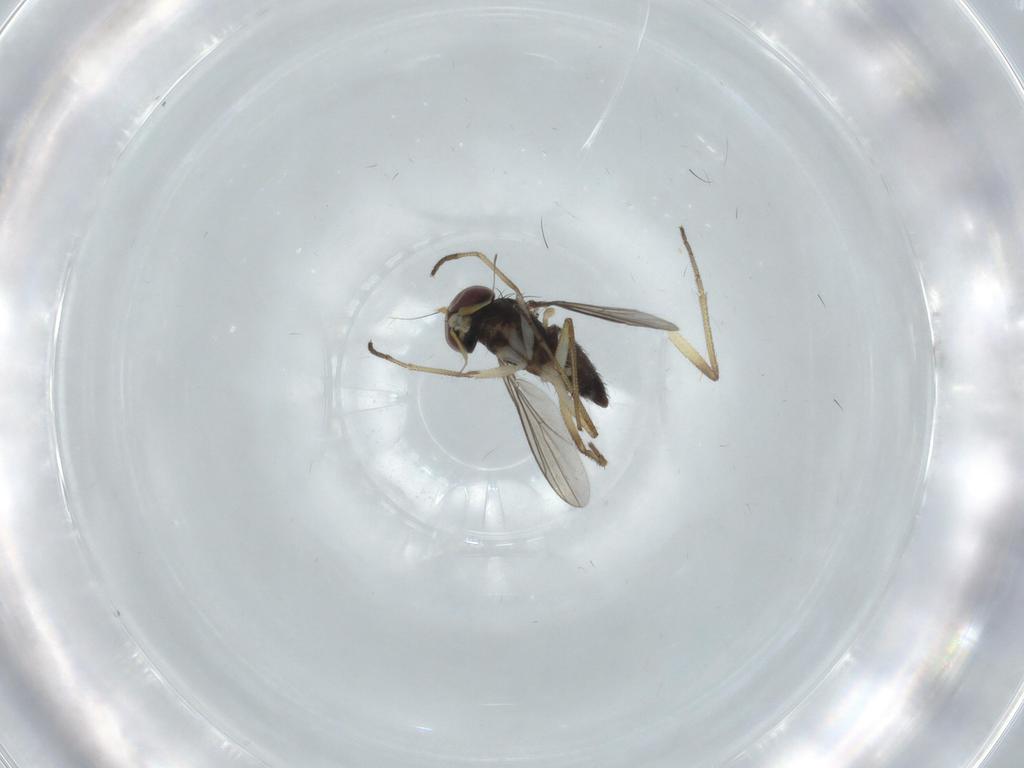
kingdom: Animalia
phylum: Arthropoda
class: Insecta
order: Diptera
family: Dolichopodidae
